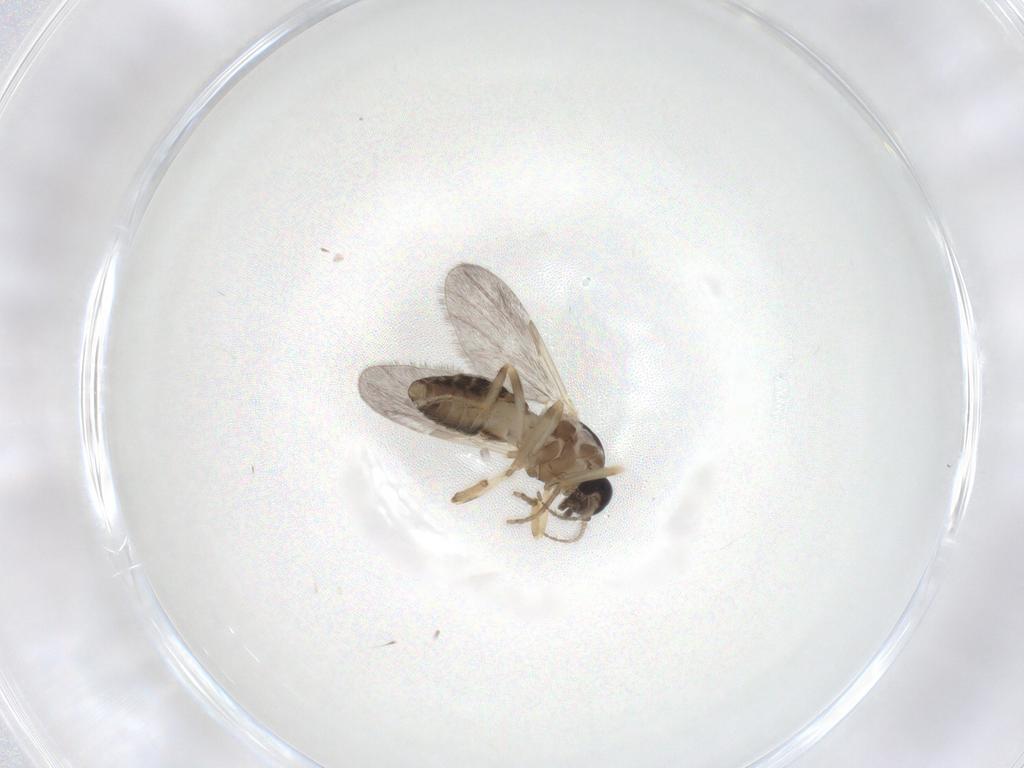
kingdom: Animalia
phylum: Arthropoda
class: Insecta
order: Diptera
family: Ceratopogonidae
